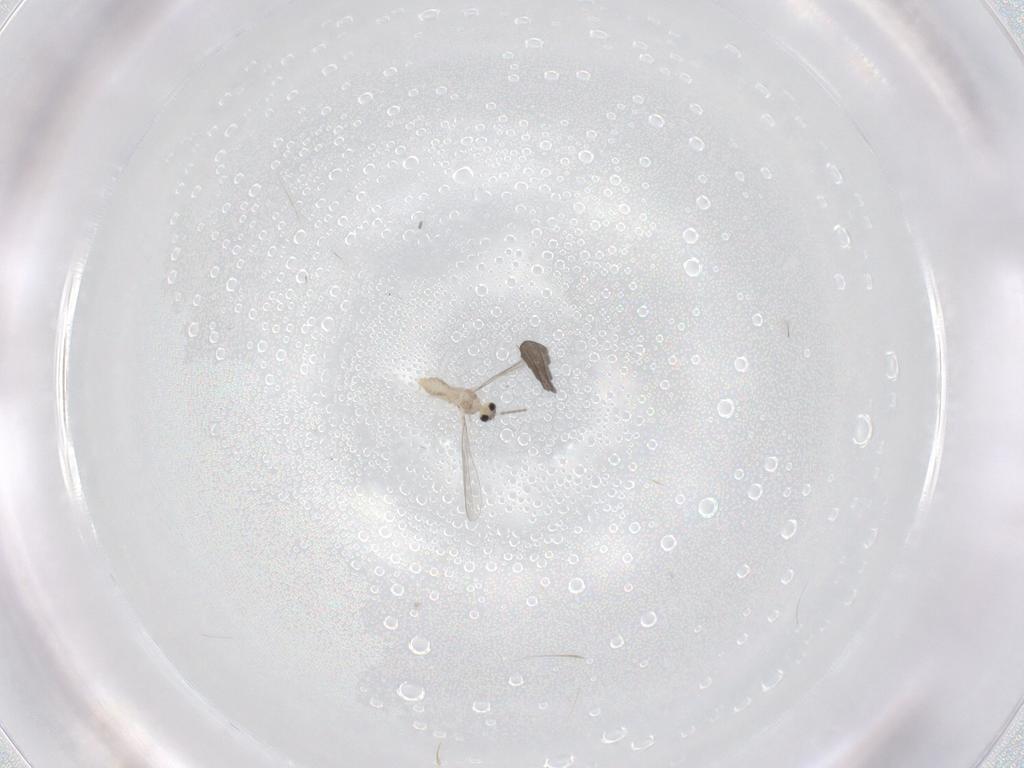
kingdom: Animalia
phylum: Arthropoda
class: Insecta
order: Diptera
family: Cecidomyiidae
